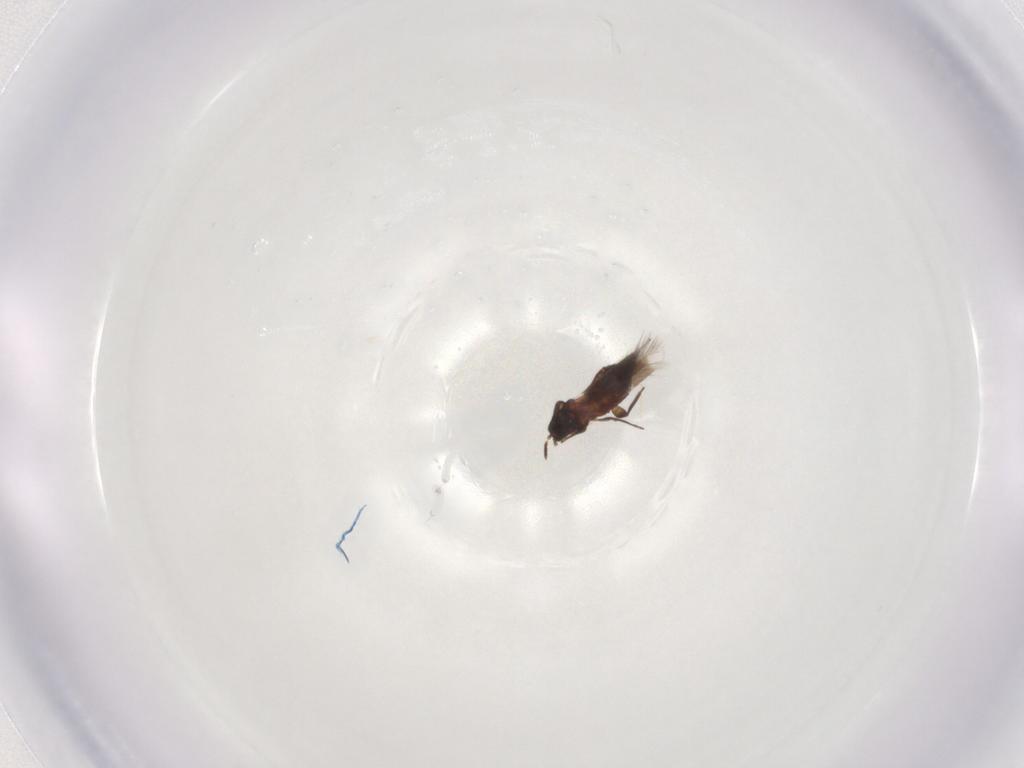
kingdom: Animalia
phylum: Arthropoda
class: Insecta
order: Thysanoptera
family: Aeolothripidae
